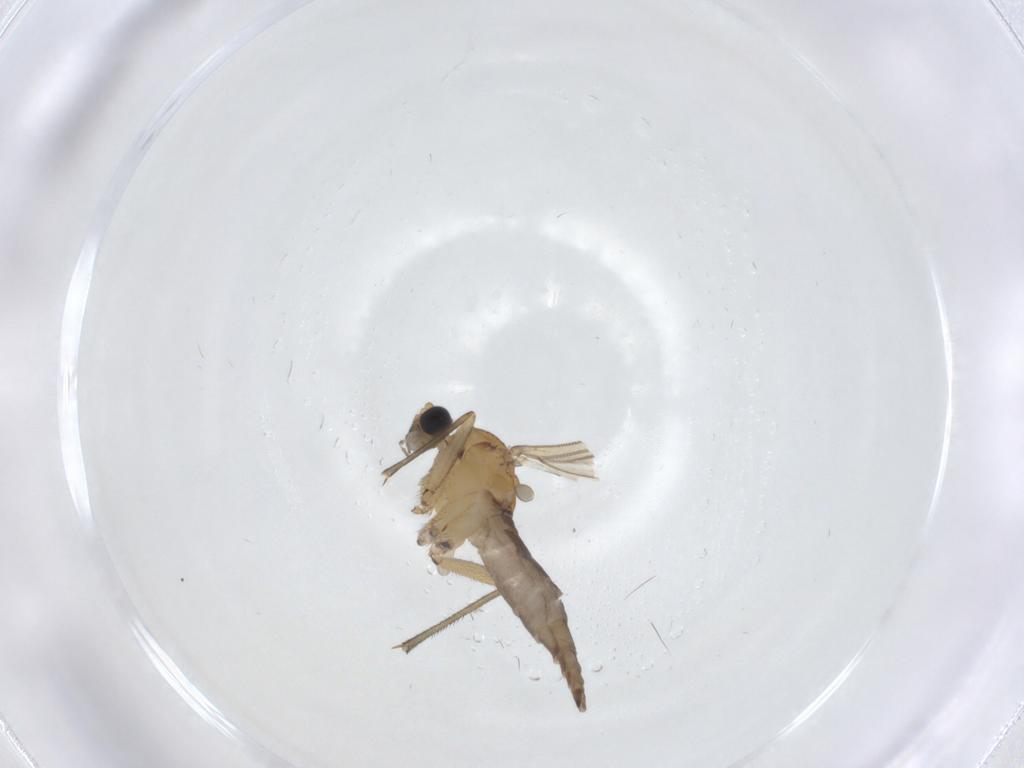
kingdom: Animalia
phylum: Arthropoda
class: Insecta
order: Diptera
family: Sciaridae
